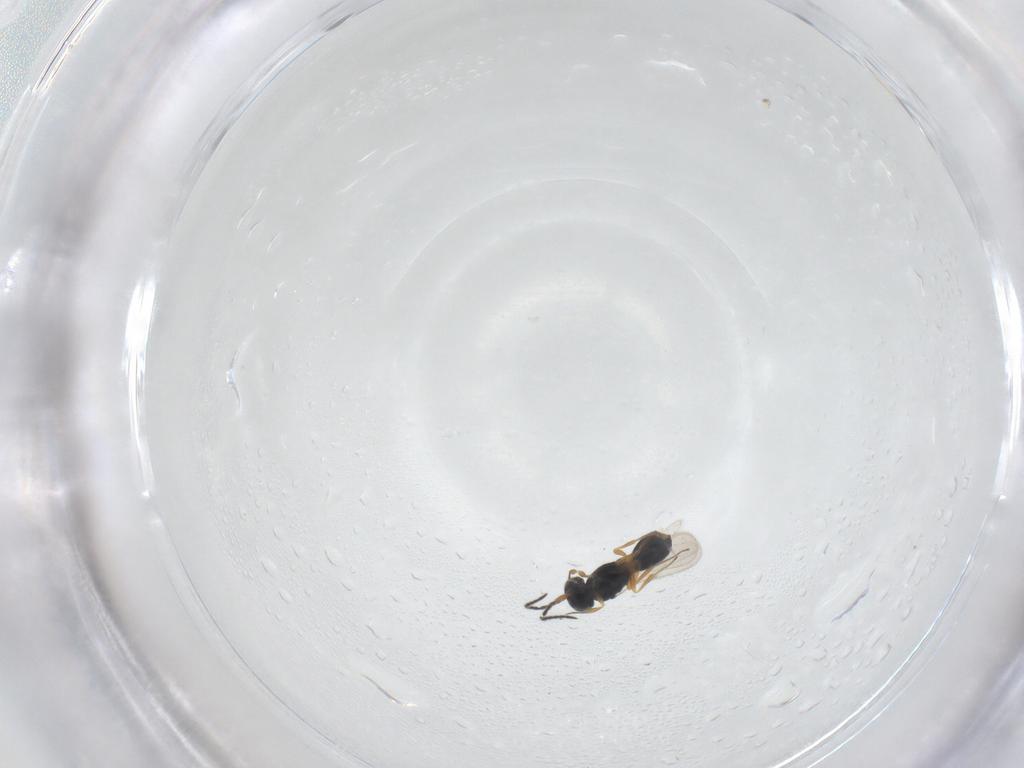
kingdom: Animalia
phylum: Arthropoda
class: Insecta
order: Hymenoptera
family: Scelionidae
